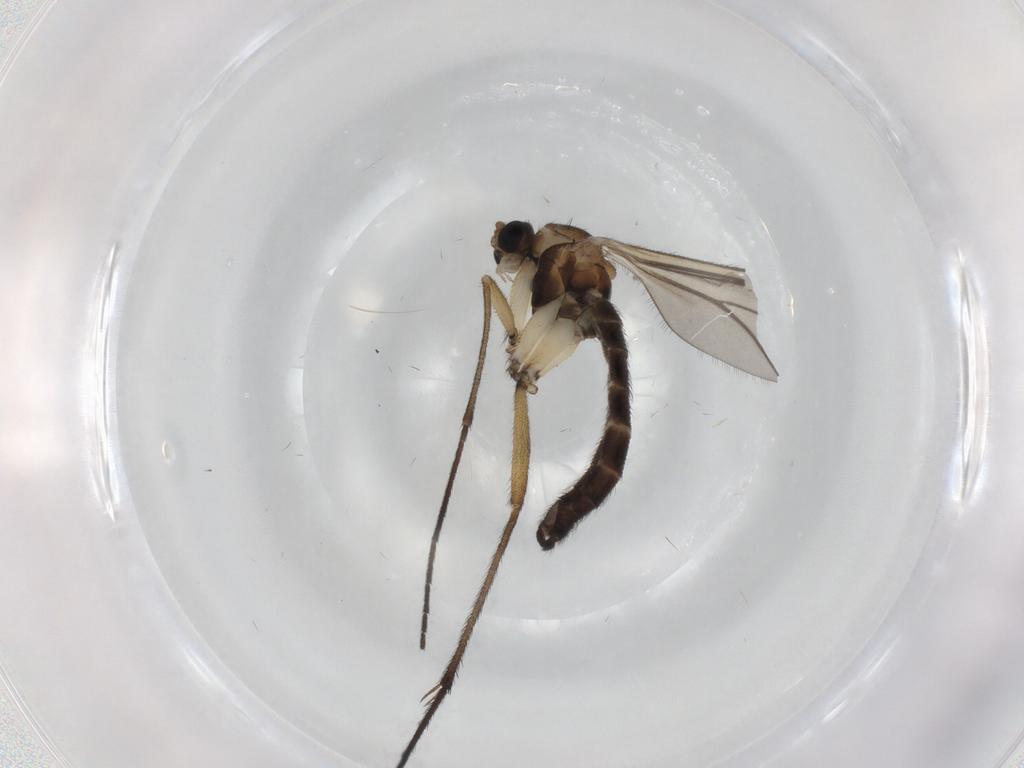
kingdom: Animalia
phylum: Arthropoda
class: Insecta
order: Diptera
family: Sciaridae
